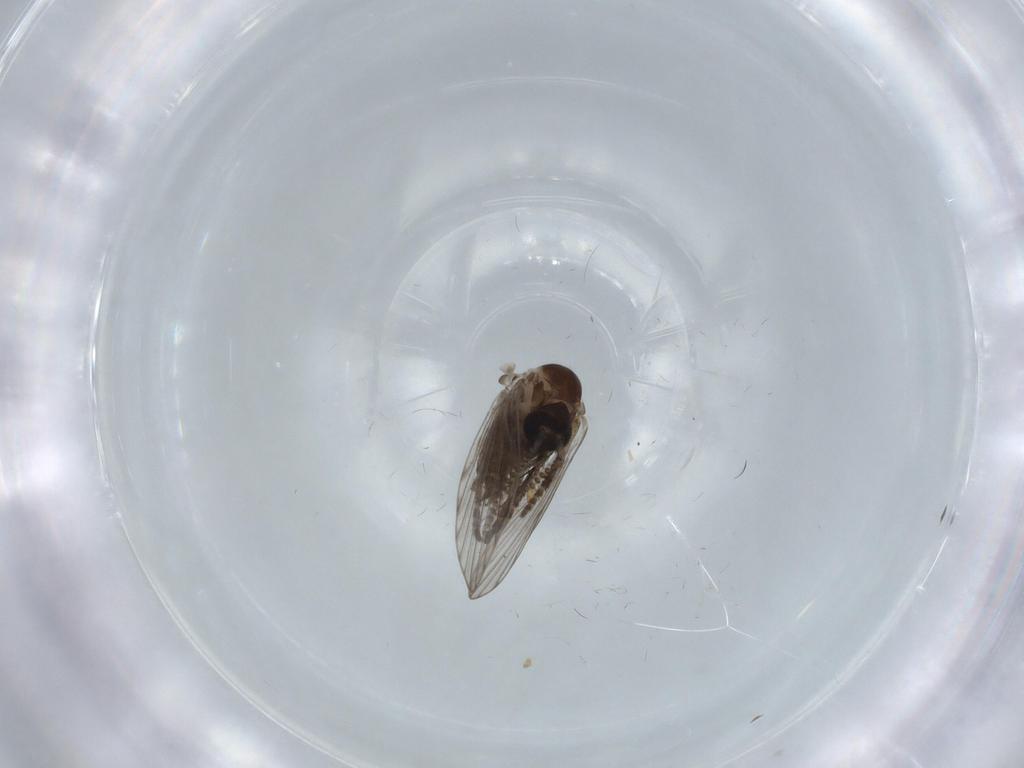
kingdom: Animalia
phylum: Arthropoda
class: Insecta
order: Diptera
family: Psychodidae
